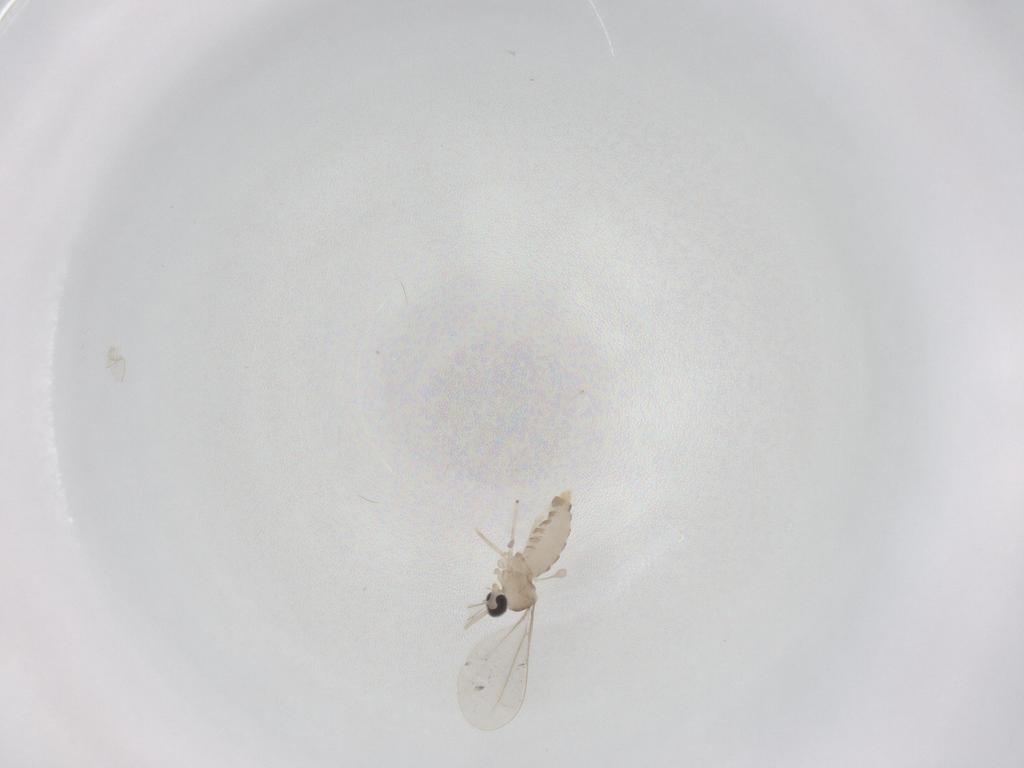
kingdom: Animalia
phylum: Arthropoda
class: Insecta
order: Diptera
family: Cecidomyiidae
